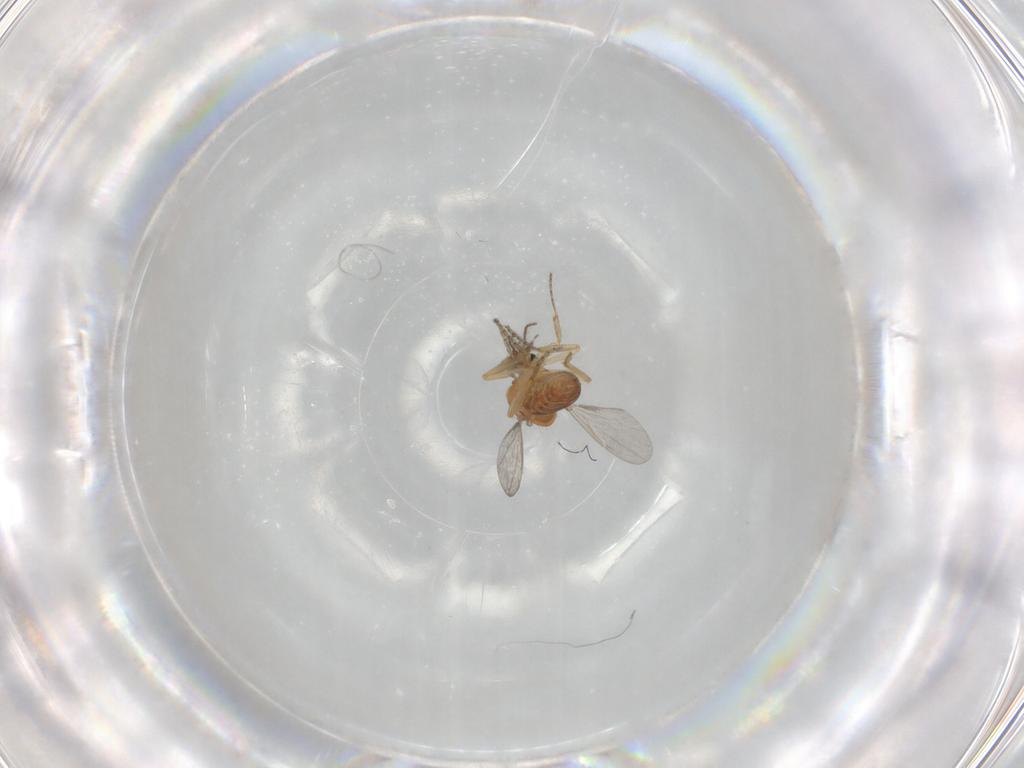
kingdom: Animalia
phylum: Arthropoda
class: Insecta
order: Diptera
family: Ceratopogonidae
